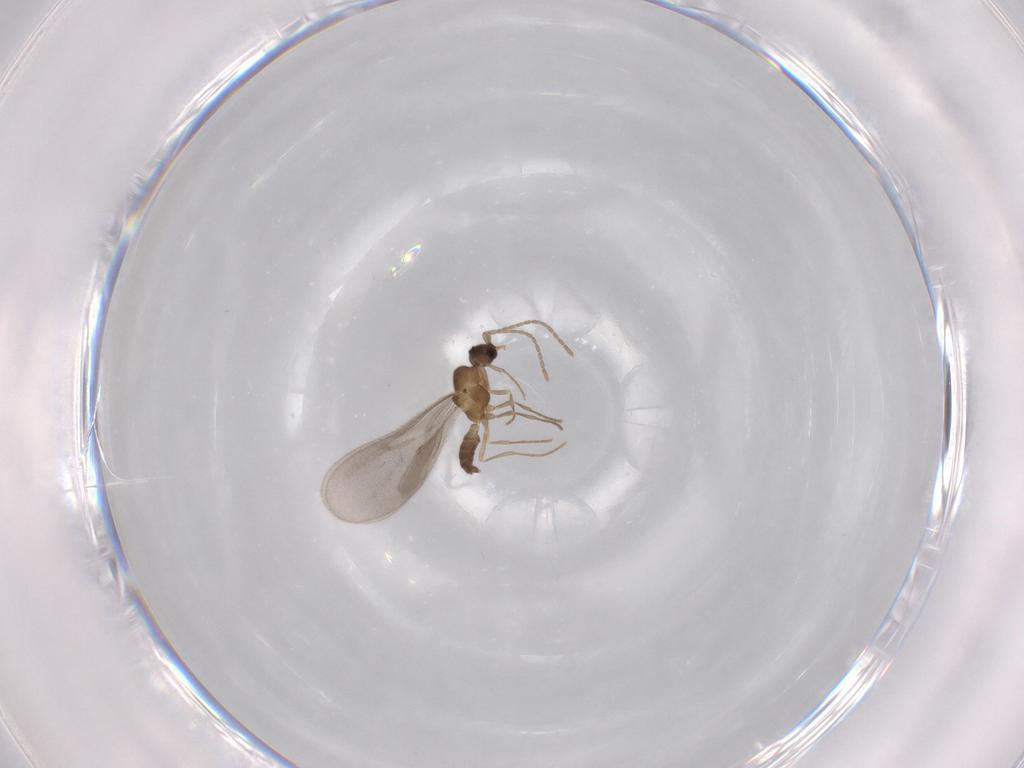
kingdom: Animalia
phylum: Arthropoda
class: Insecta
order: Hymenoptera
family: Formicidae
